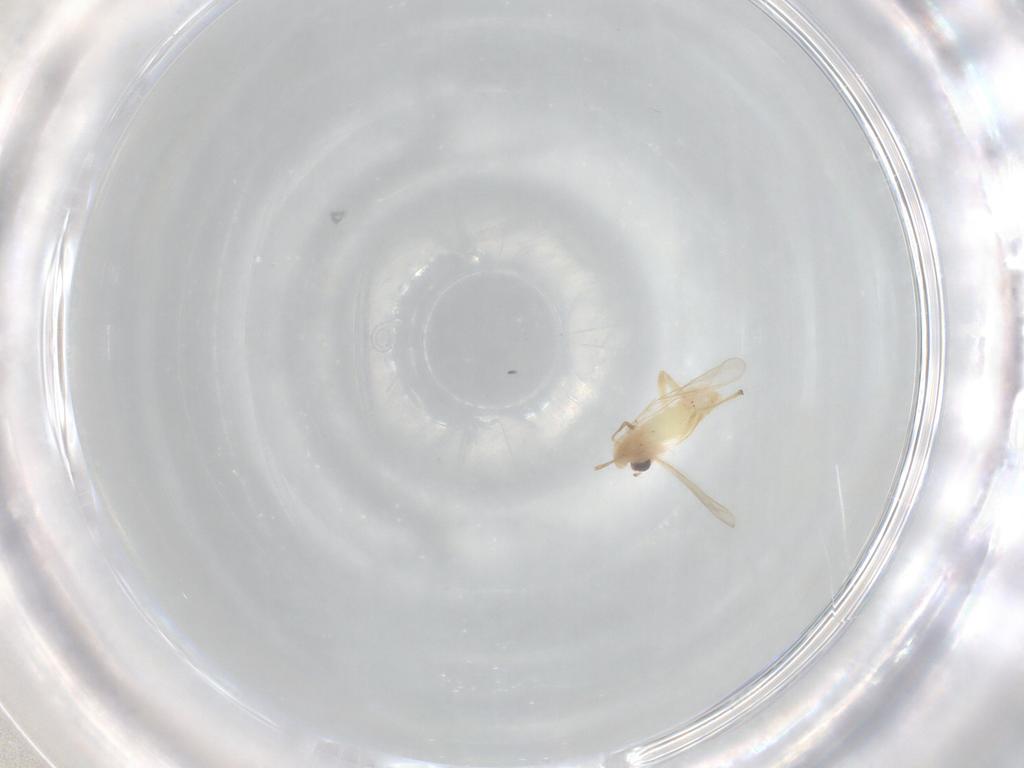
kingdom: Animalia
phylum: Arthropoda
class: Insecta
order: Diptera
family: Chironomidae
